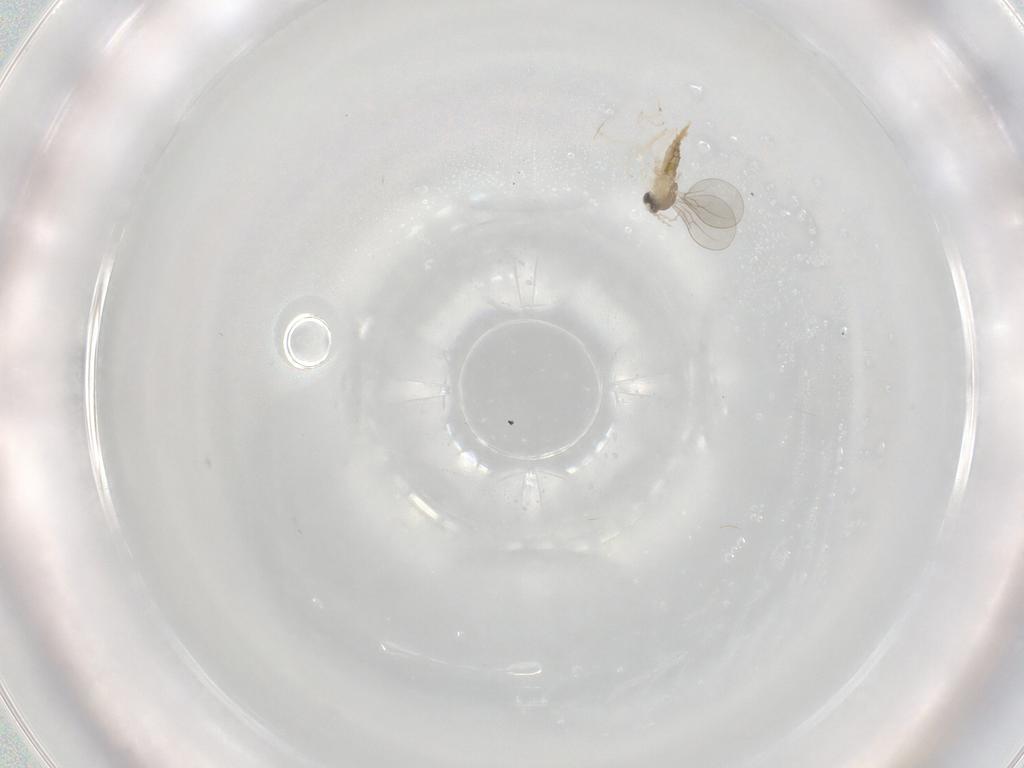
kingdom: Animalia
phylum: Arthropoda
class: Insecta
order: Diptera
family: Cecidomyiidae
